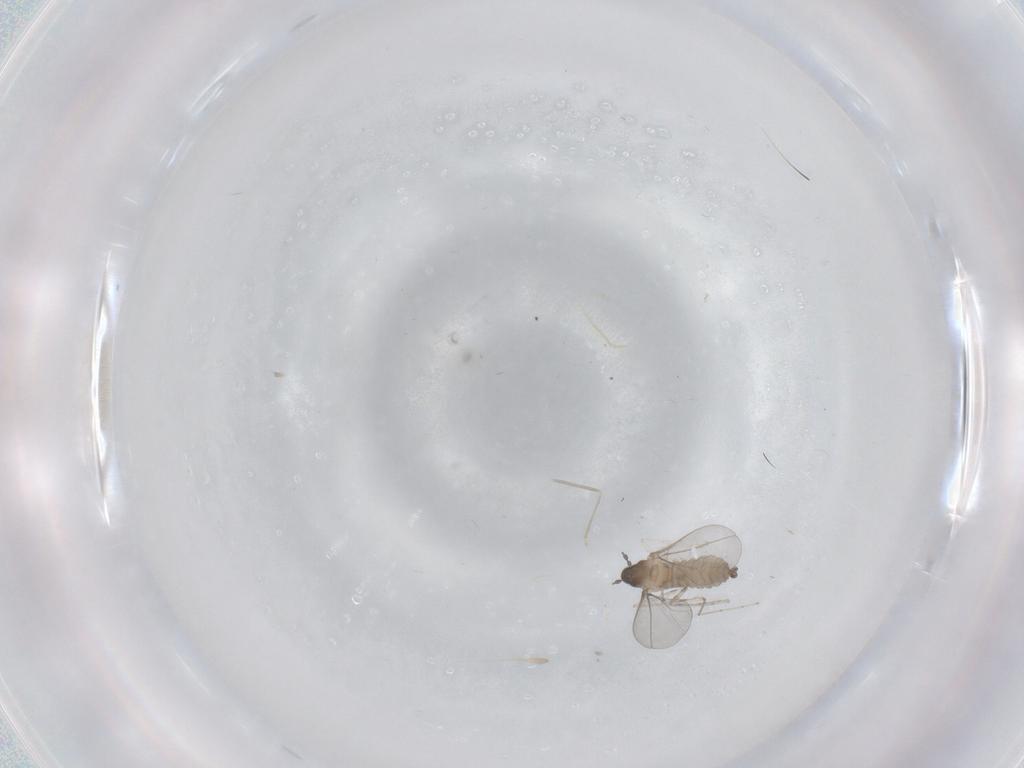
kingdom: Animalia
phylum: Arthropoda
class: Insecta
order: Diptera
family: Cecidomyiidae
